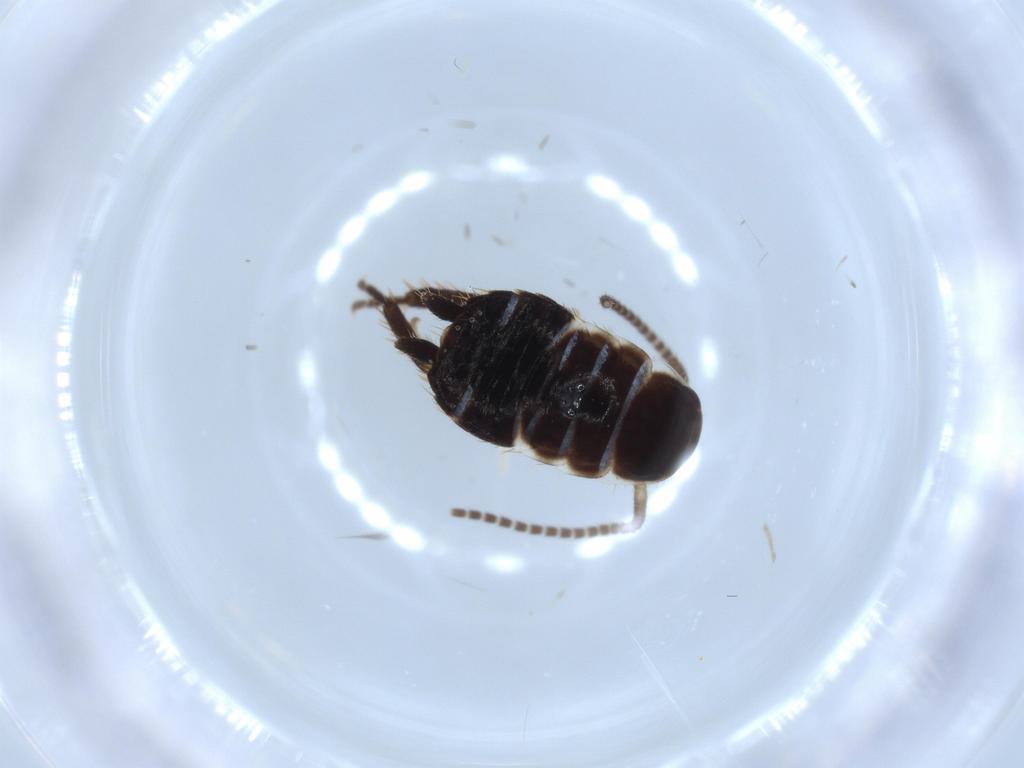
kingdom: Animalia
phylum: Arthropoda
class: Insecta
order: Blattodea
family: Ectobiidae
